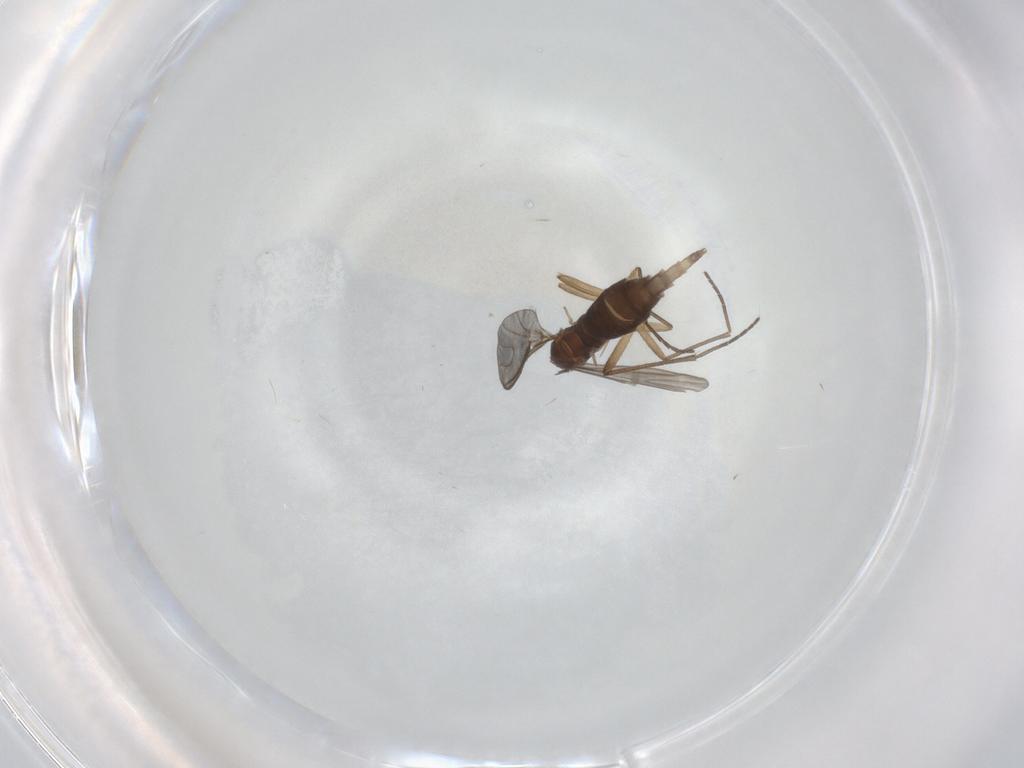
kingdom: Animalia
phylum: Arthropoda
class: Insecta
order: Diptera
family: Sciaridae
